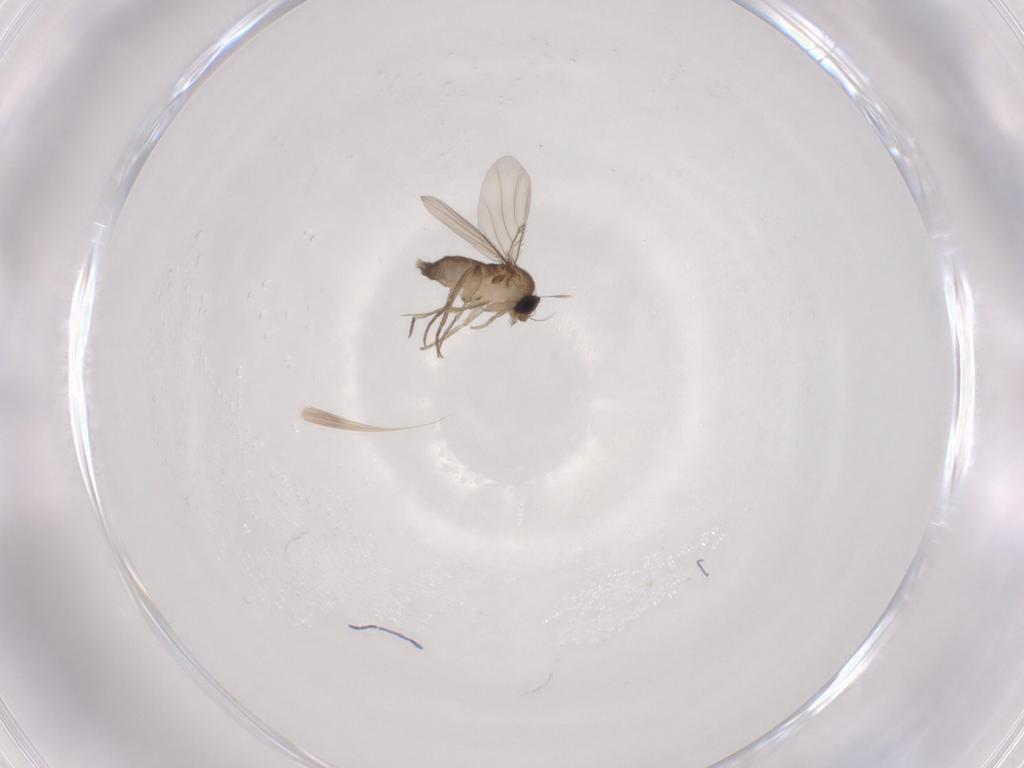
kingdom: Animalia
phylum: Arthropoda
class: Insecta
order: Diptera
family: Phoridae
